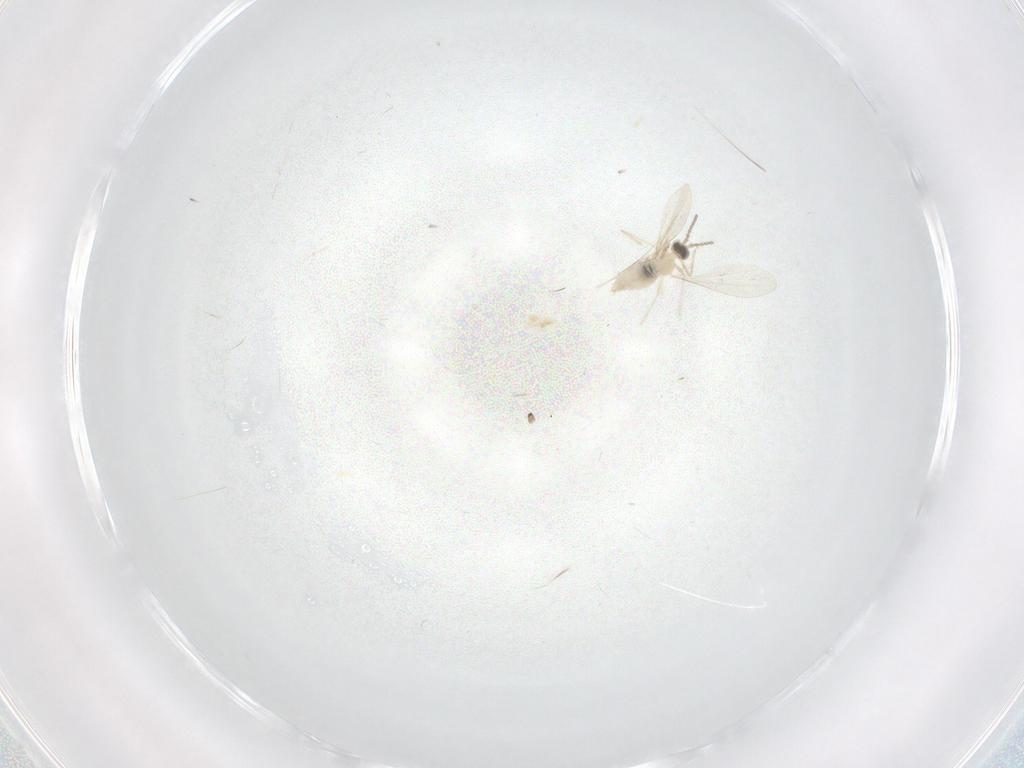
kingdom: Animalia
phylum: Arthropoda
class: Insecta
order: Diptera
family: Cecidomyiidae
